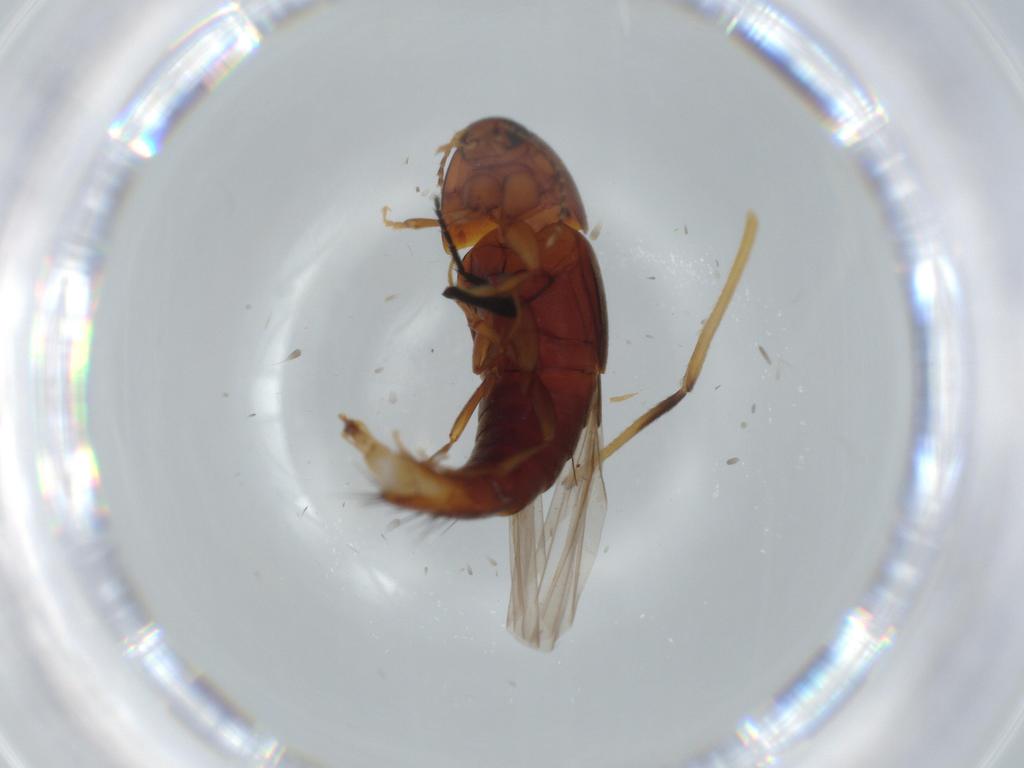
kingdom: Animalia
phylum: Arthropoda
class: Insecta
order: Coleoptera
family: Staphylinidae
